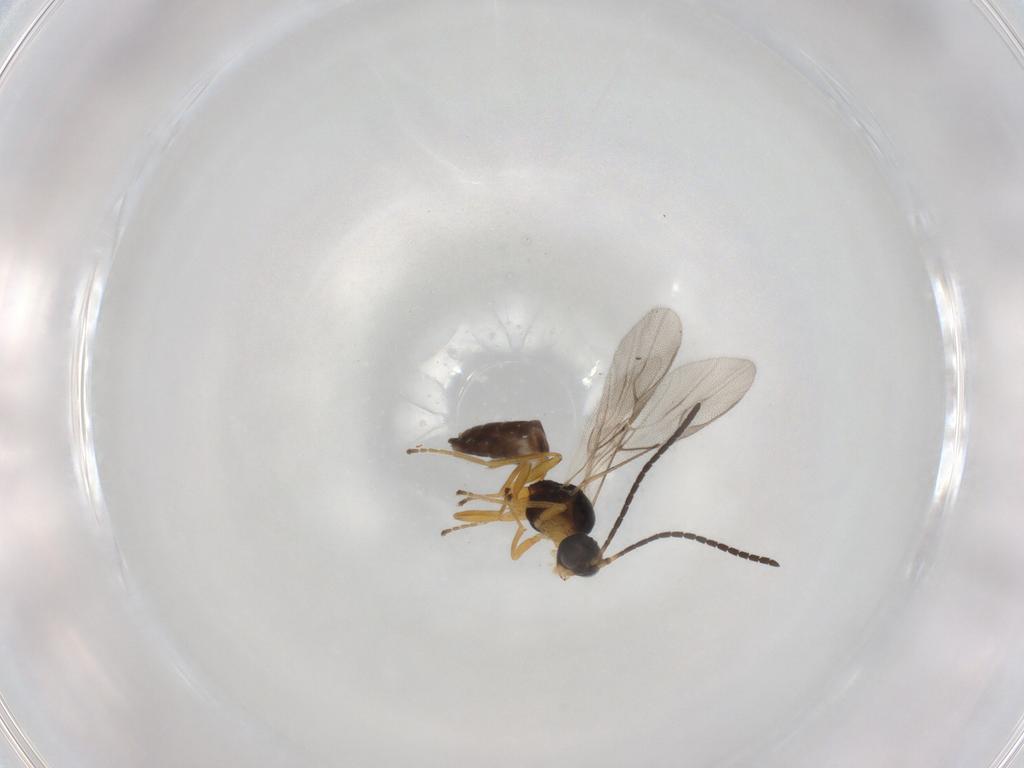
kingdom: Animalia
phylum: Arthropoda
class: Insecta
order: Hymenoptera
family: Braconidae
